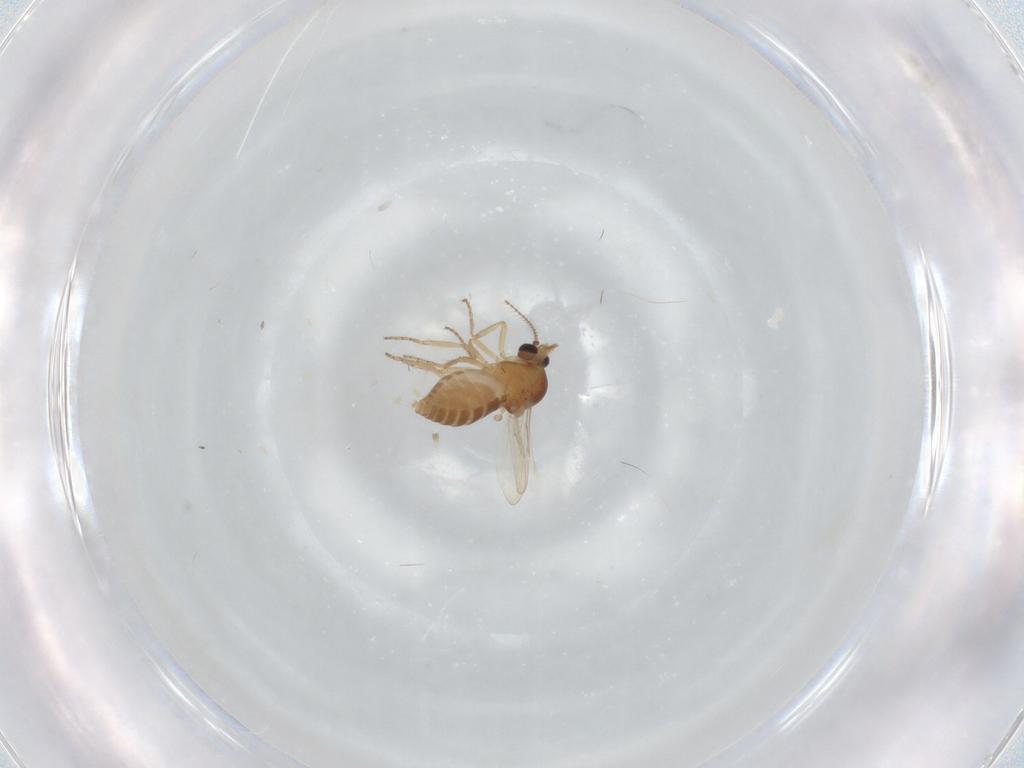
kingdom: Animalia
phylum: Arthropoda
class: Insecta
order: Diptera
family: Ceratopogonidae
